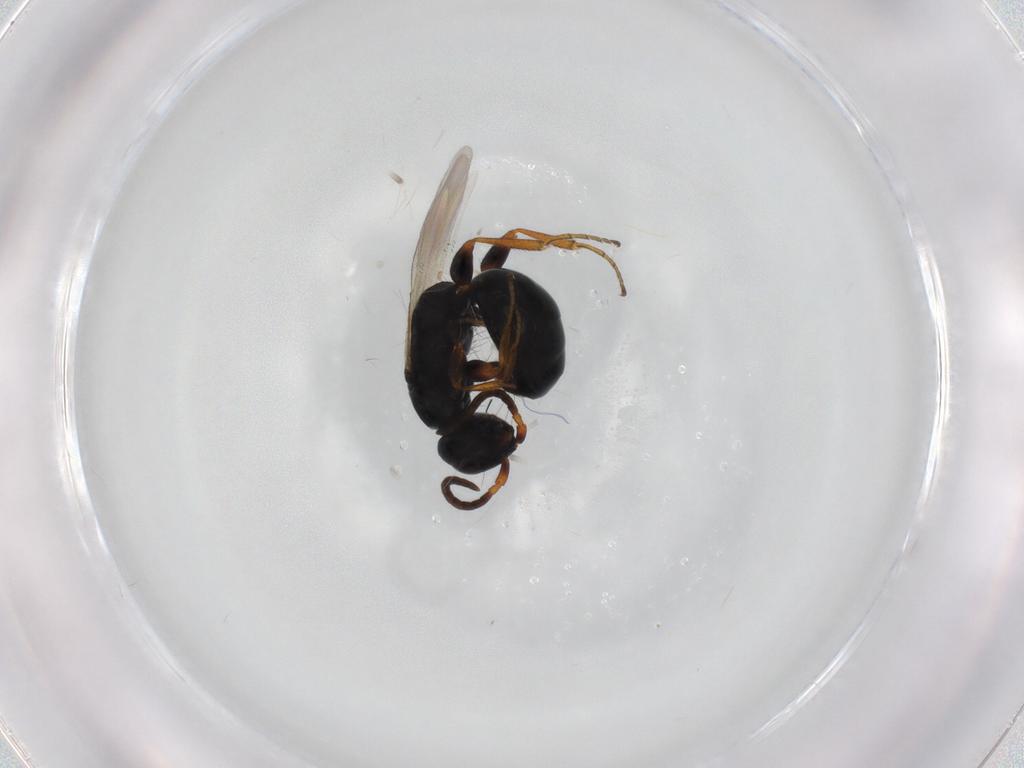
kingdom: Animalia
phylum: Arthropoda
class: Insecta
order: Hymenoptera
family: Bethylidae
